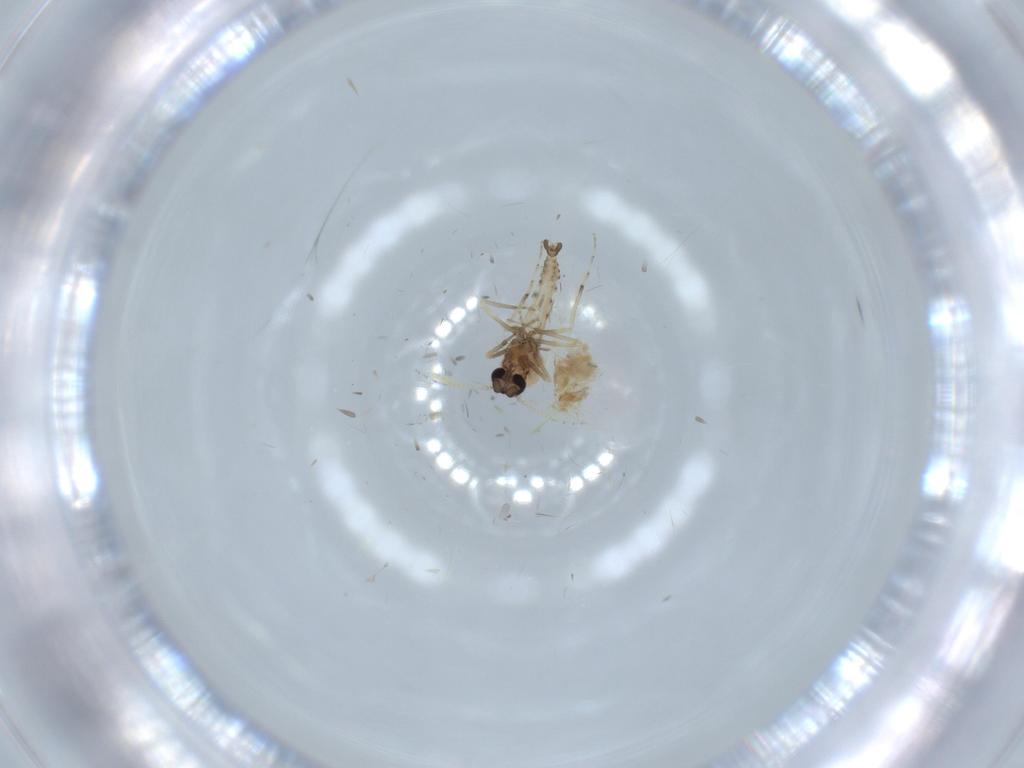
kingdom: Animalia
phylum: Arthropoda
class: Insecta
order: Diptera
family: Ceratopogonidae
